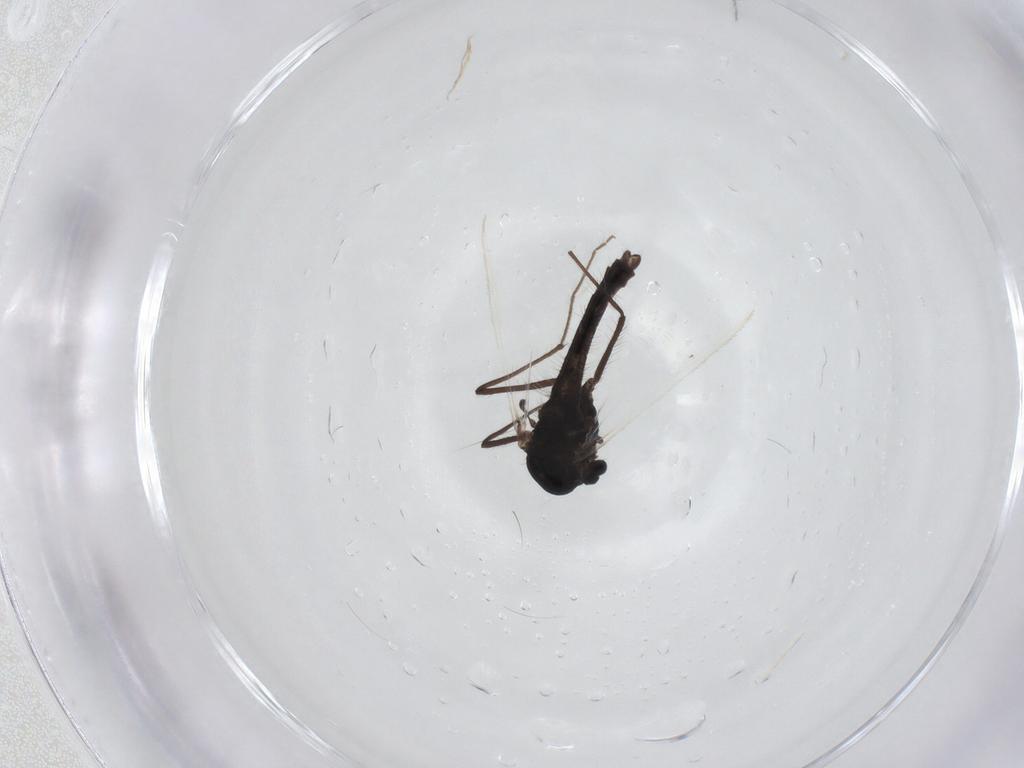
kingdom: Animalia
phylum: Arthropoda
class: Insecta
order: Diptera
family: Chironomidae
